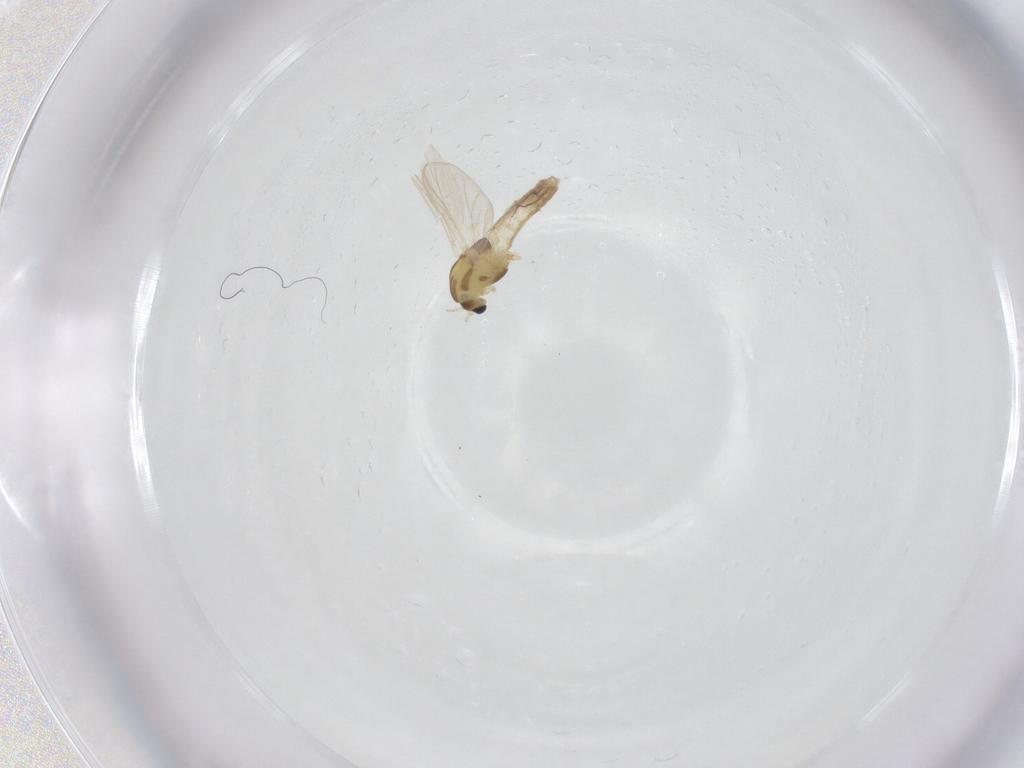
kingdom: Animalia
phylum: Arthropoda
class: Insecta
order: Diptera
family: Chironomidae
